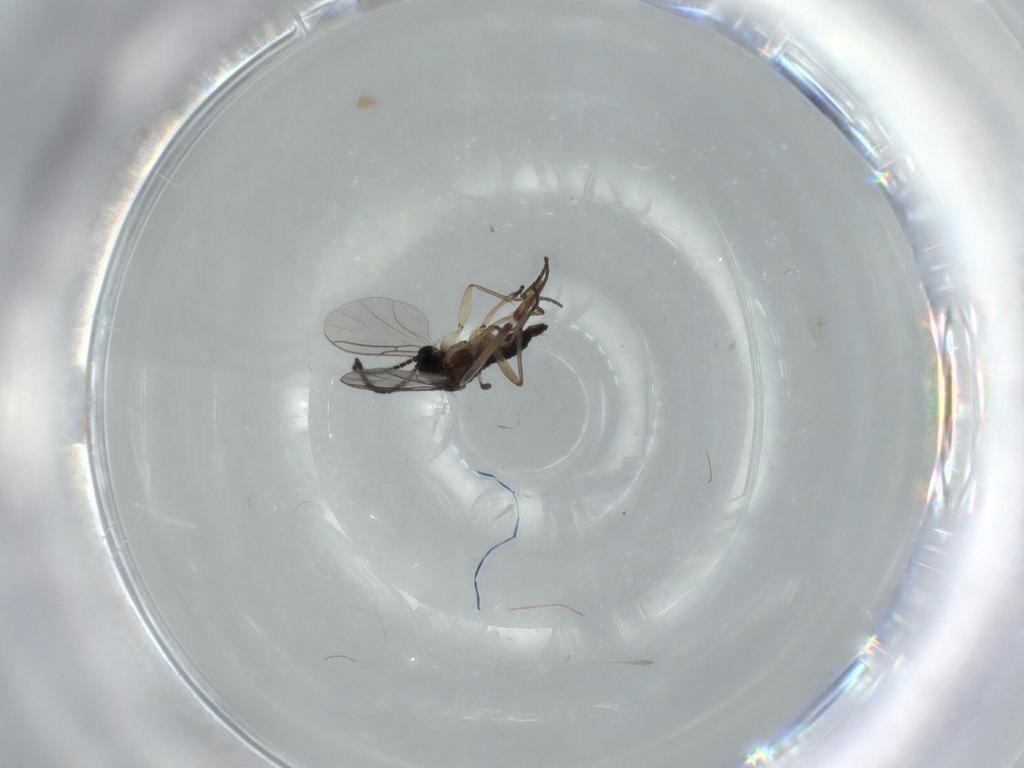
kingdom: Animalia
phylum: Arthropoda
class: Insecta
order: Diptera
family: Sciaridae
